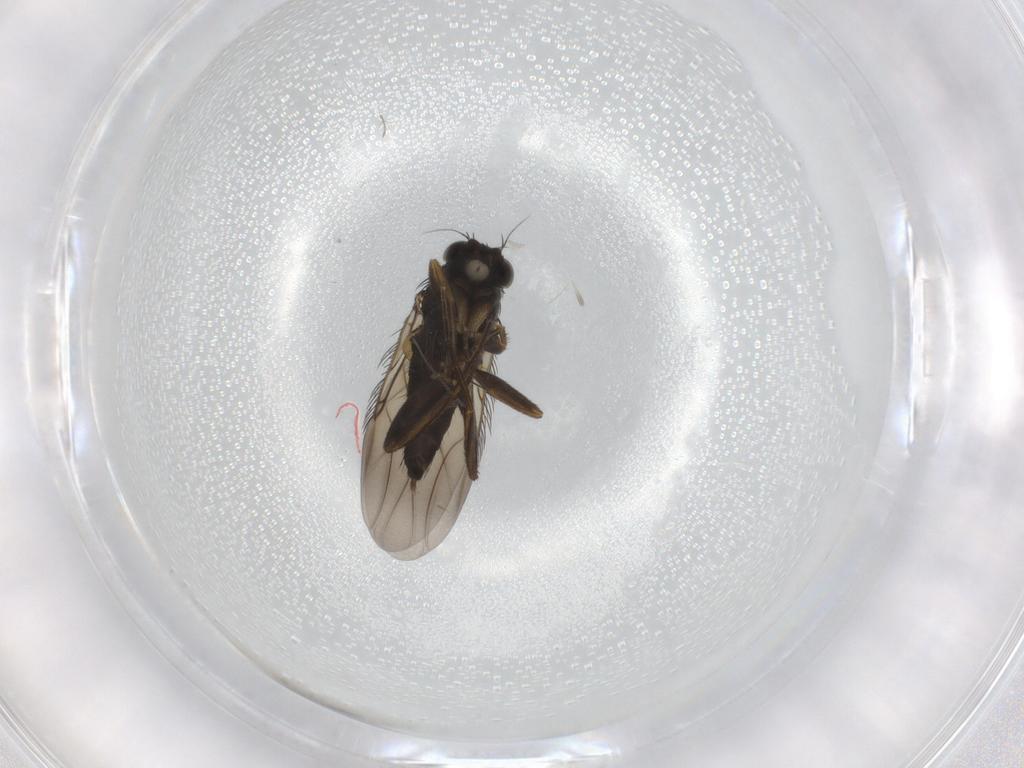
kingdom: Animalia
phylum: Arthropoda
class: Insecta
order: Diptera
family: Phoridae
